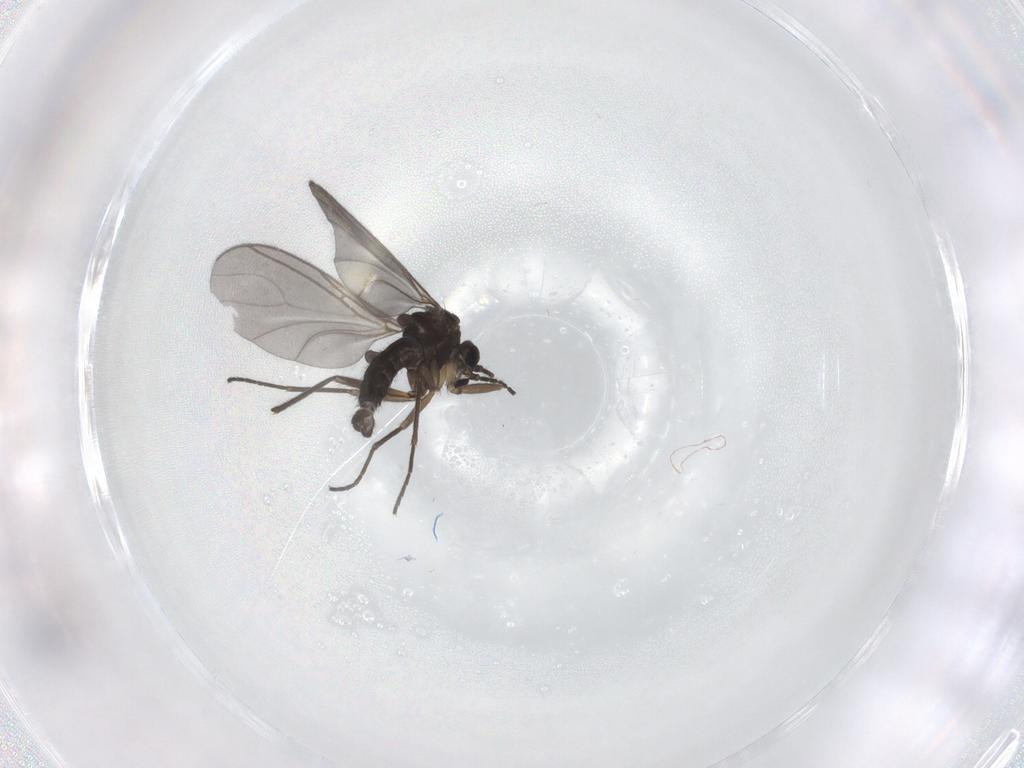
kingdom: Animalia
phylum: Arthropoda
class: Insecta
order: Diptera
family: Sciaridae
